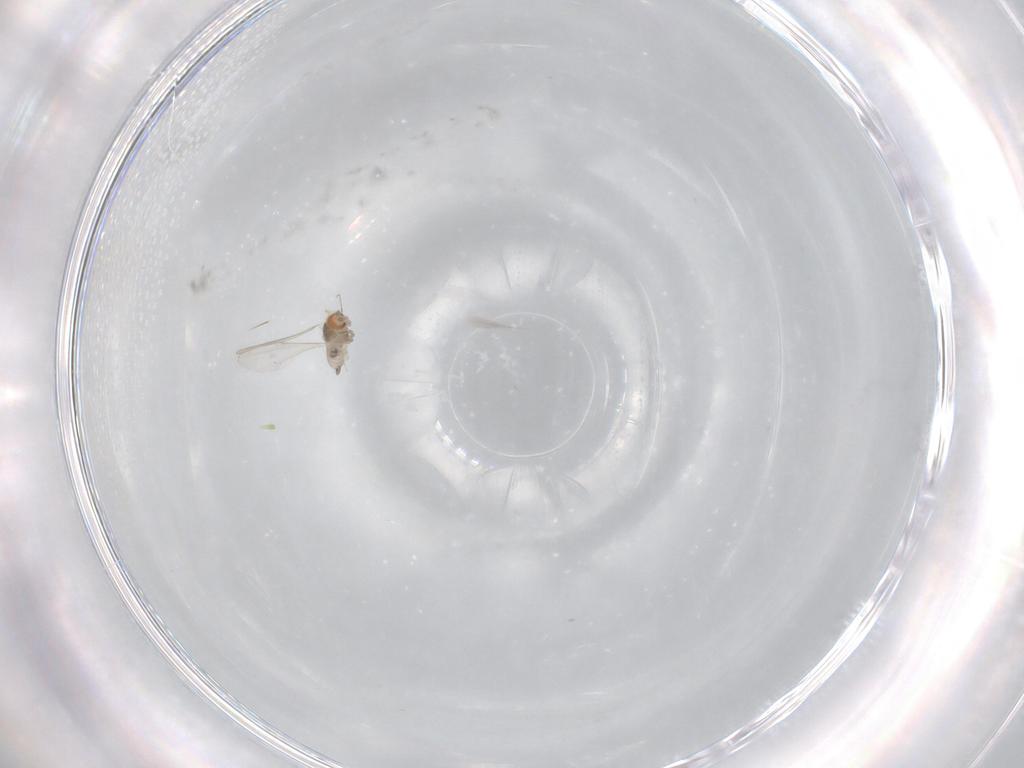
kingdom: Animalia
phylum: Arthropoda
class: Insecta
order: Diptera
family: Cecidomyiidae
